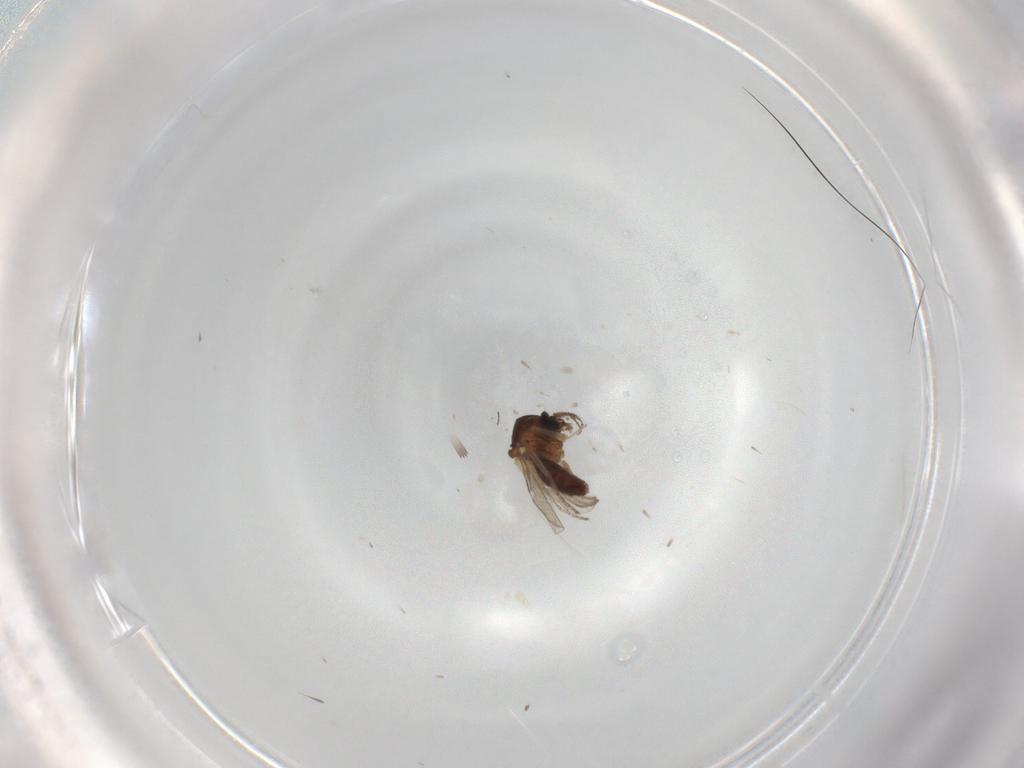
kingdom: Animalia
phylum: Arthropoda
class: Insecta
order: Diptera
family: Ceratopogonidae
